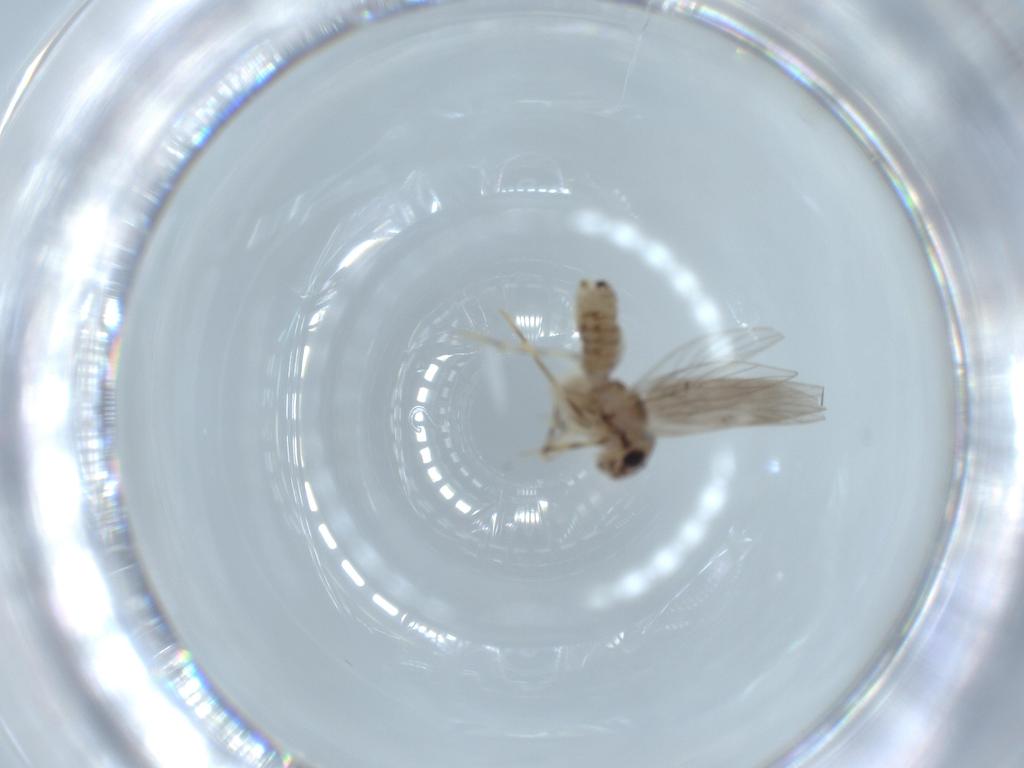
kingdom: Animalia
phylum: Arthropoda
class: Insecta
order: Psocodea
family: Lepidopsocidae
